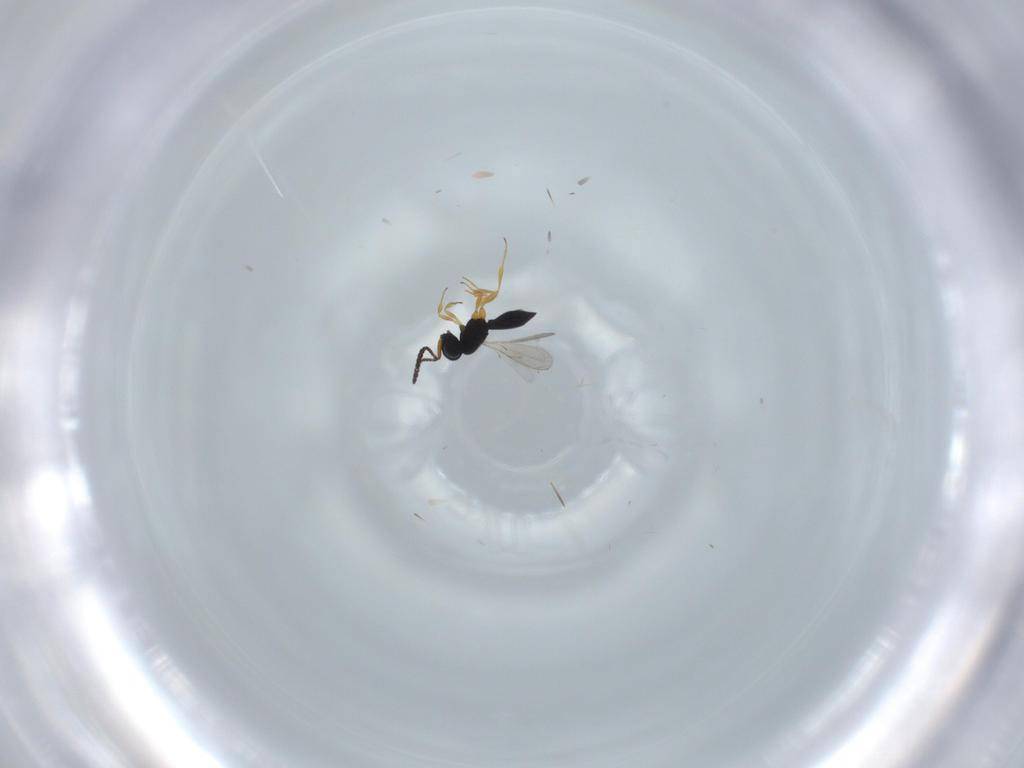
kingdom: Animalia
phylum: Arthropoda
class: Insecta
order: Hymenoptera
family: Scelionidae
